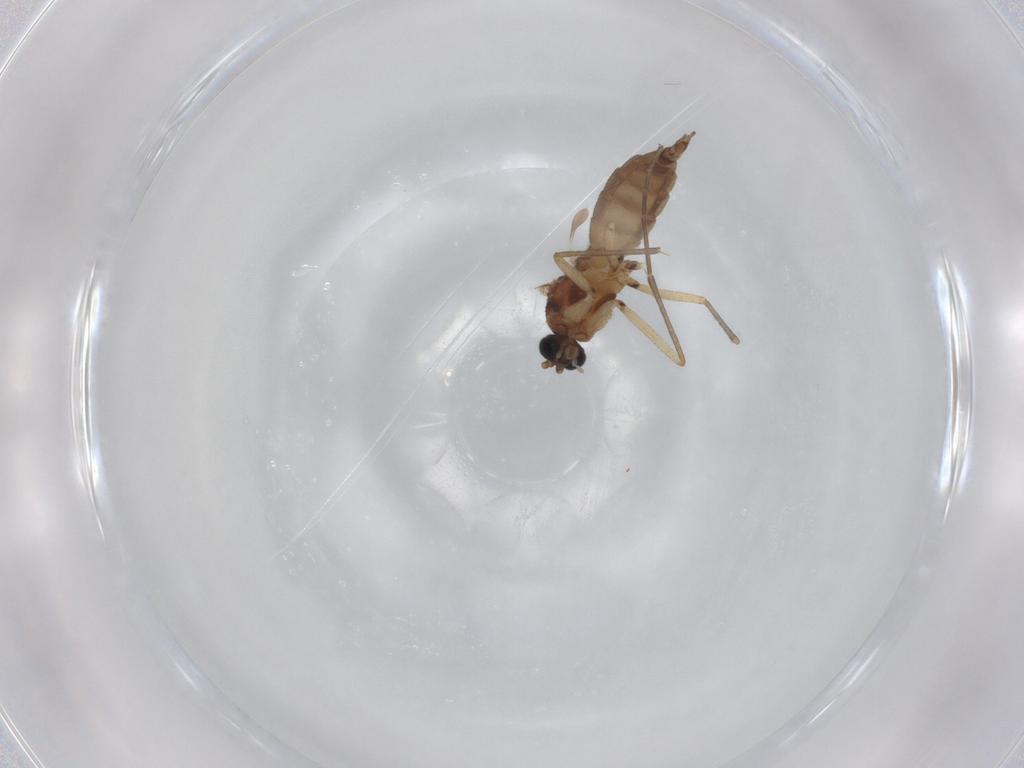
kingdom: Animalia
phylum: Arthropoda
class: Insecta
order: Diptera
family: Sciaridae
